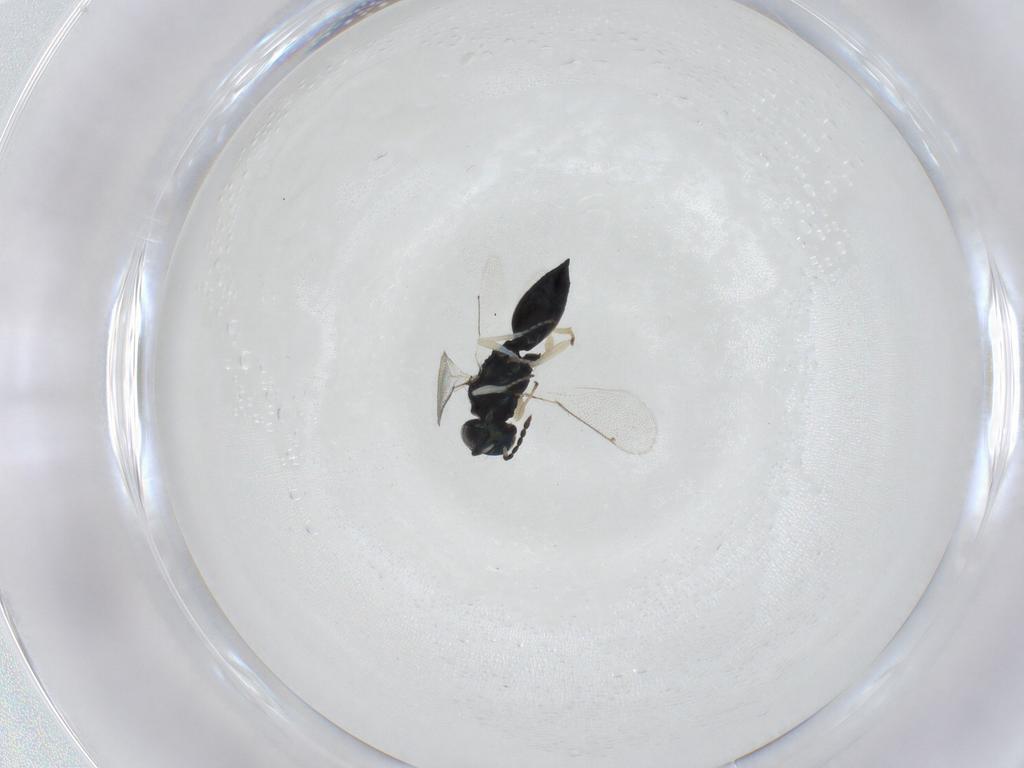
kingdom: Animalia
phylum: Arthropoda
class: Insecta
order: Hymenoptera
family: Eulophidae
